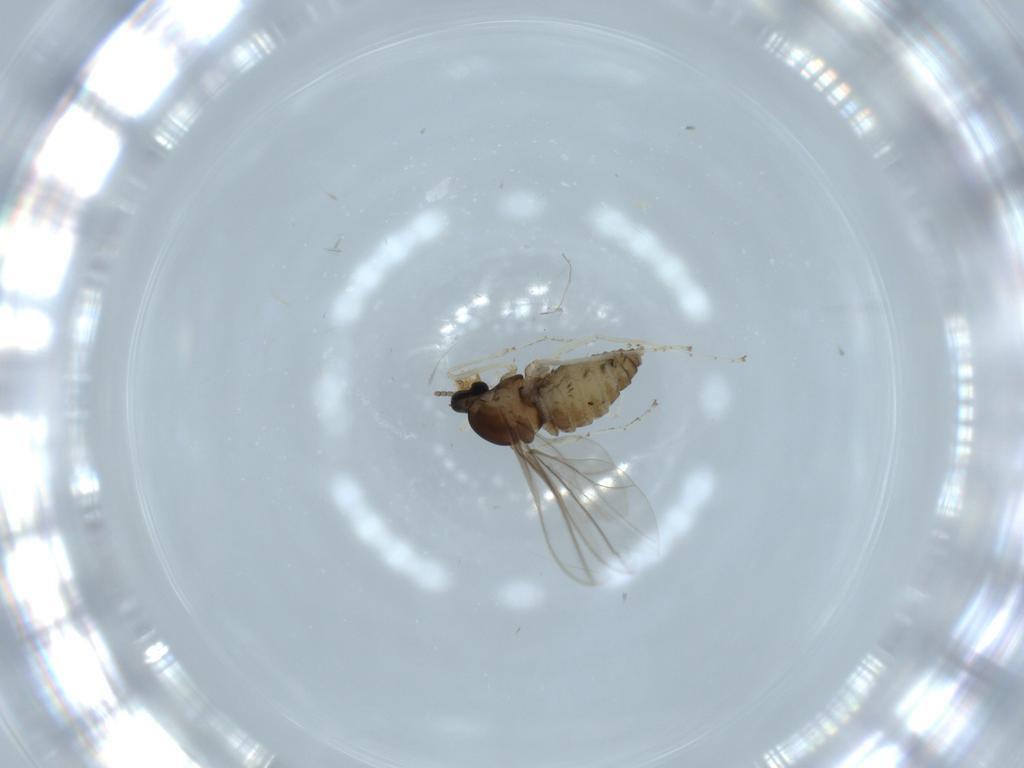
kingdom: Animalia
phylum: Arthropoda
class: Insecta
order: Diptera
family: Cecidomyiidae
